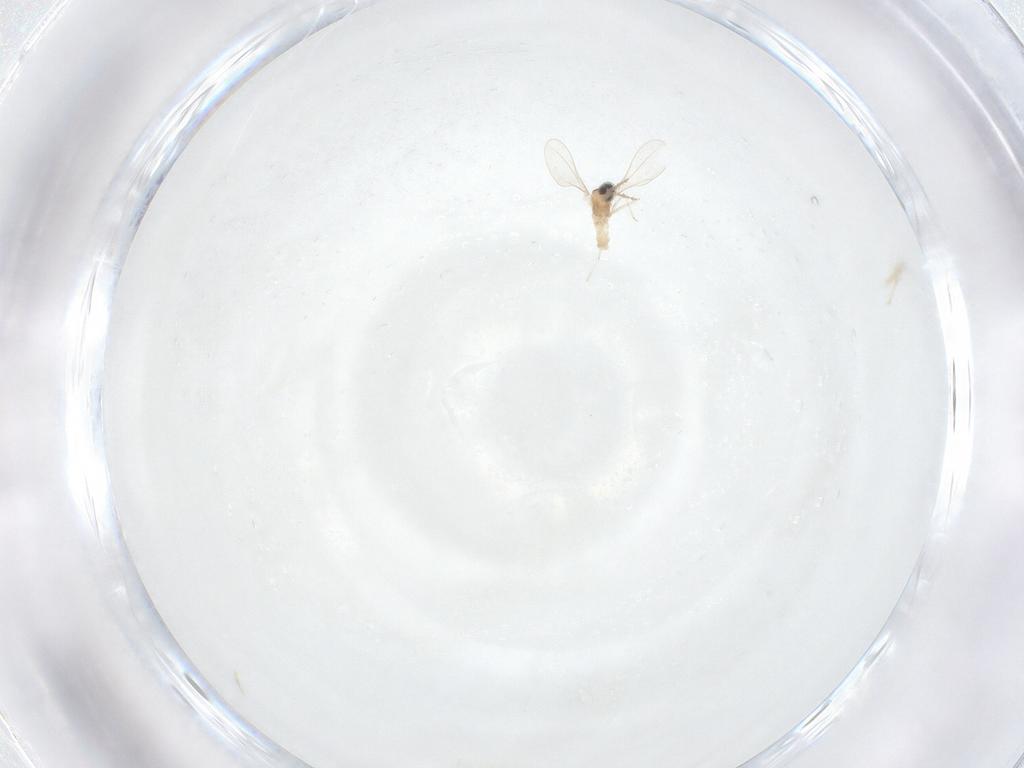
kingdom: Animalia
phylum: Arthropoda
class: Insecta
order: Diptera
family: Cecidomyiidae
